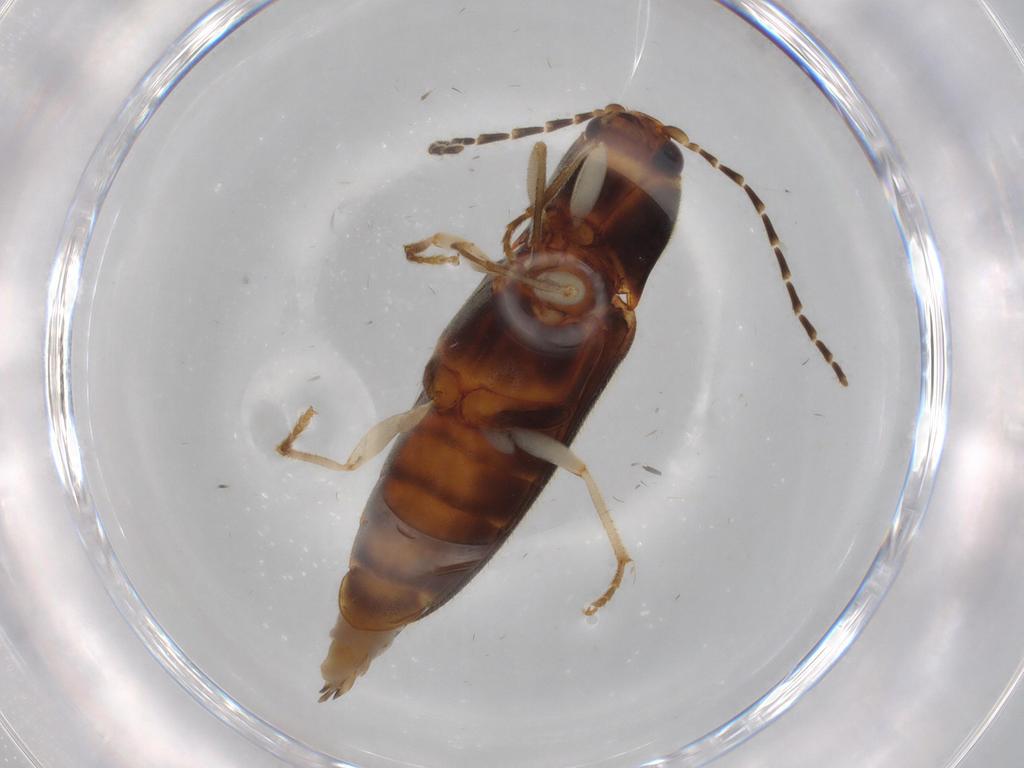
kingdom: Animalia
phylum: Arthropoda
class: Insecta
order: Coleoptera
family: Elateridae
